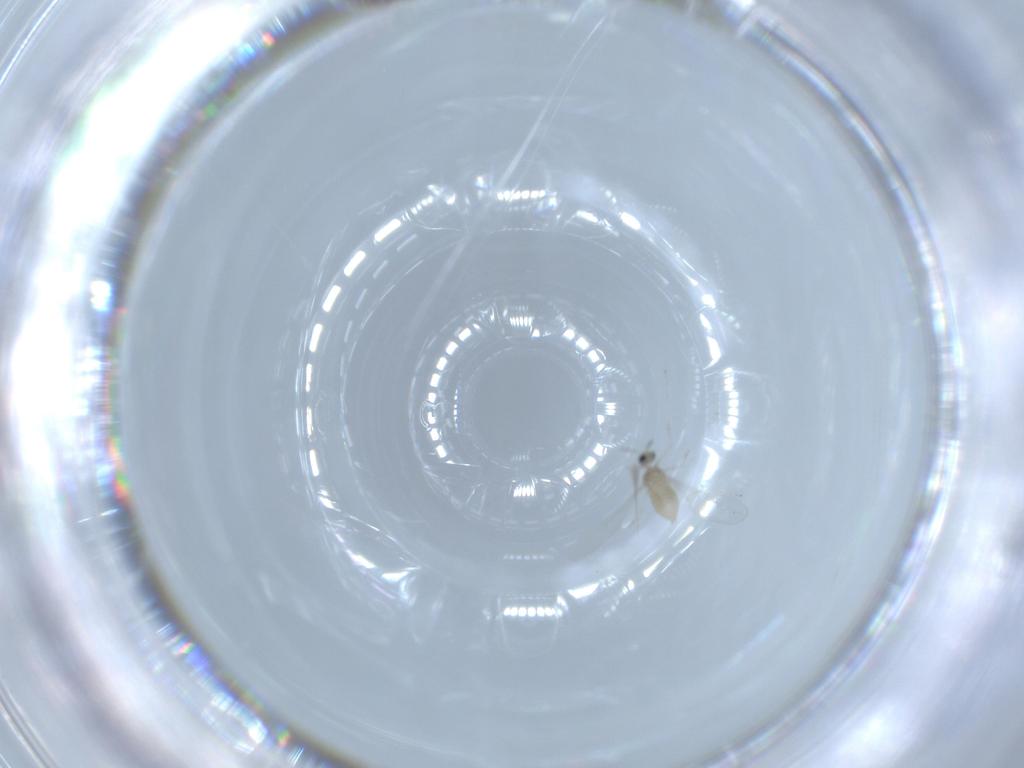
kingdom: Animalia
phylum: Arthropoda
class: Insecta
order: Diptera
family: Cecidomyiidae
